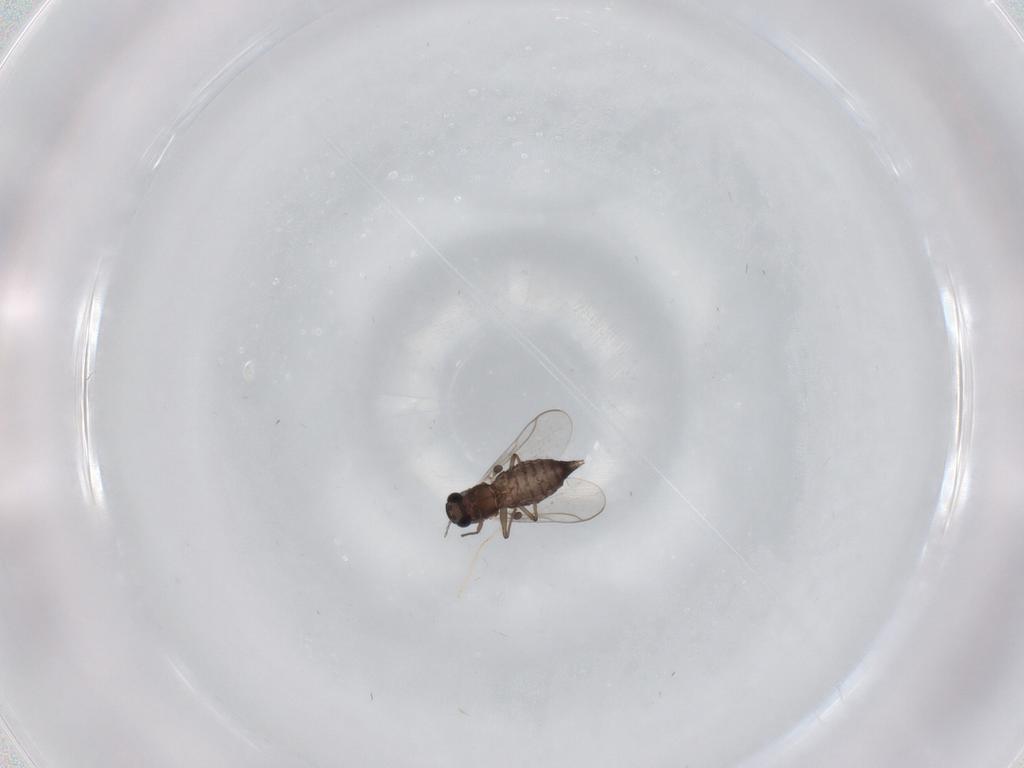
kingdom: Animalia
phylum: Arthropoda
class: Insecta
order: Diptera
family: Chironomidae
